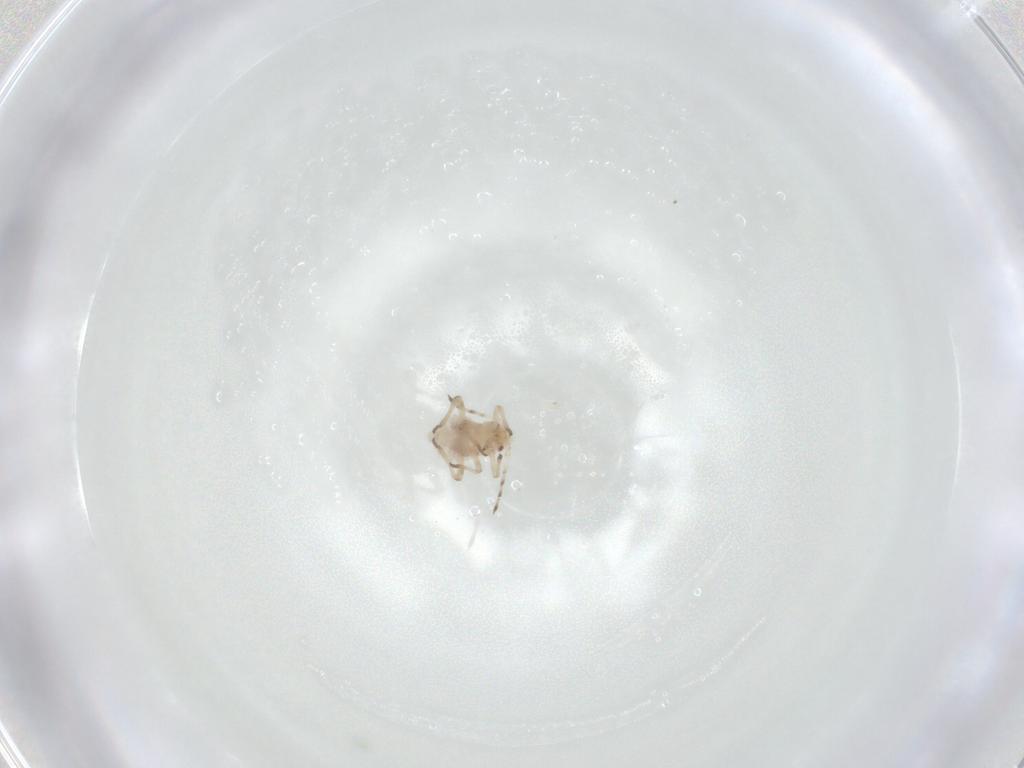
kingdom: Animalia
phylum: Arthropoda
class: Insecta
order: Hemiptera
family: Aphididae
